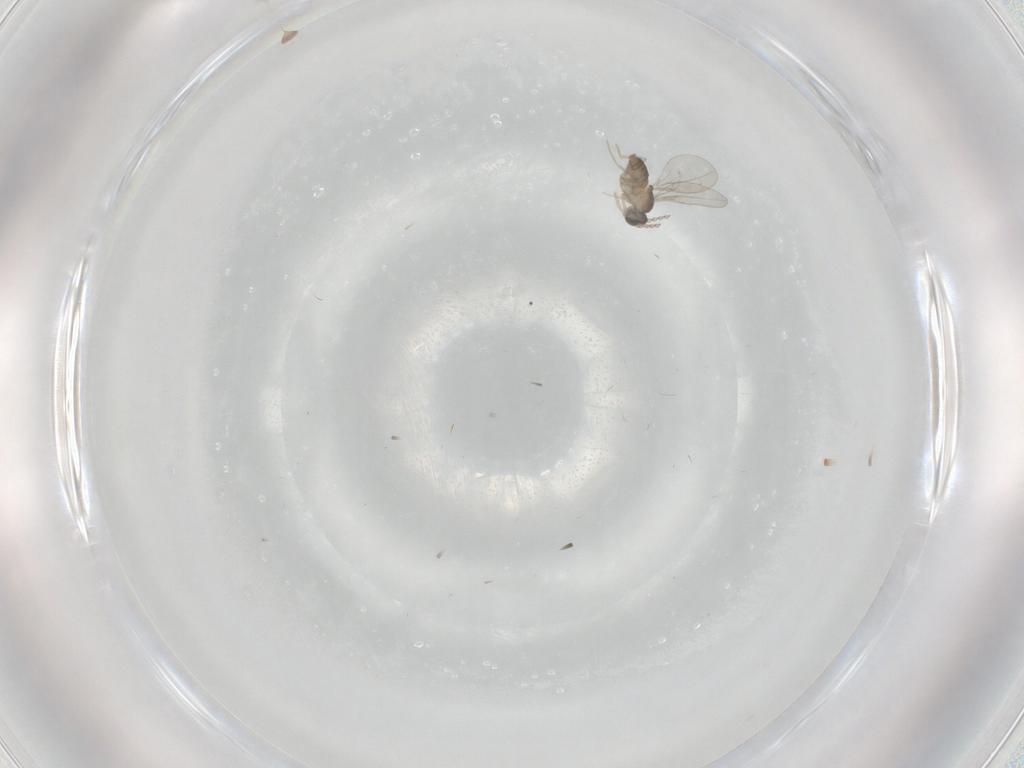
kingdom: Animalia
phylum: Arthropoda
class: Insecta
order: Diptera
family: Cecidomyiidae
